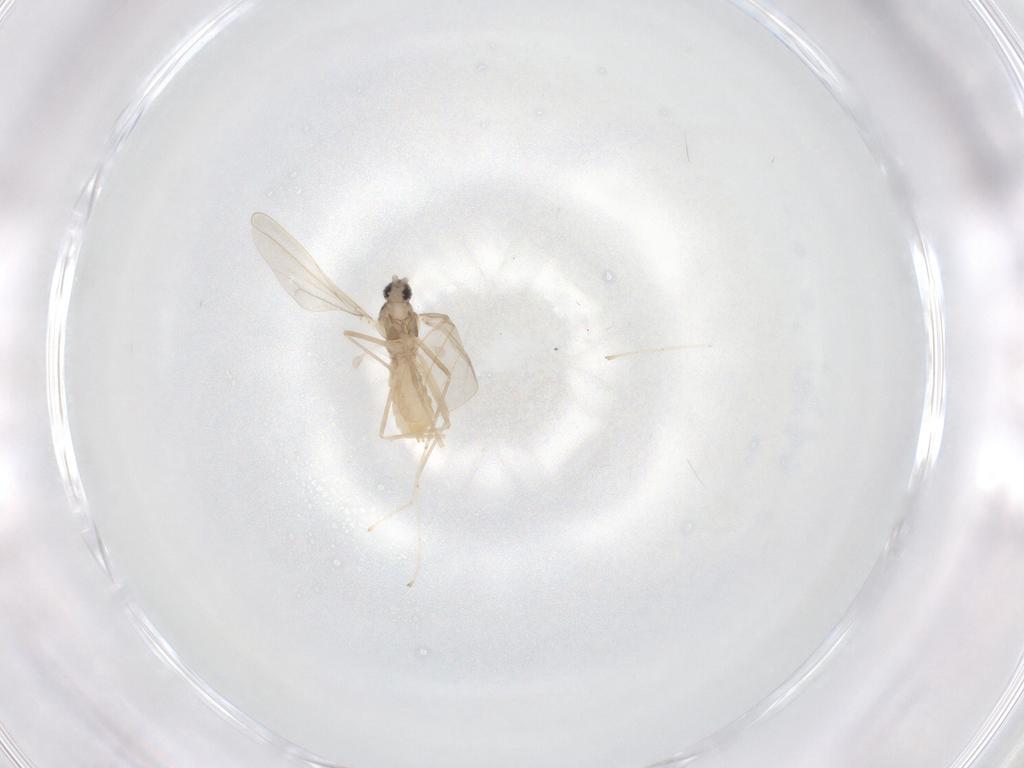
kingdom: Animalia
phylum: Arthropoda
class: Insecta
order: Diptera
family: Cecidomyiidae
